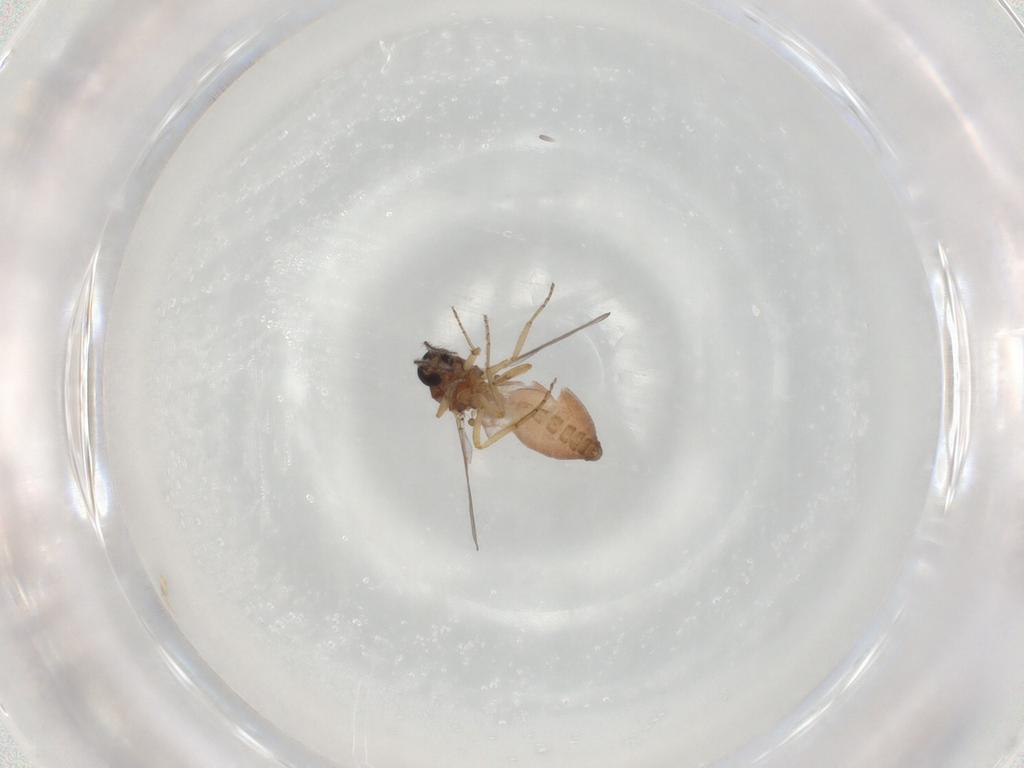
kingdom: Animalia
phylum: Arthropoda
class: Insecta
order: Diptera
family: Ceratopogonidae
